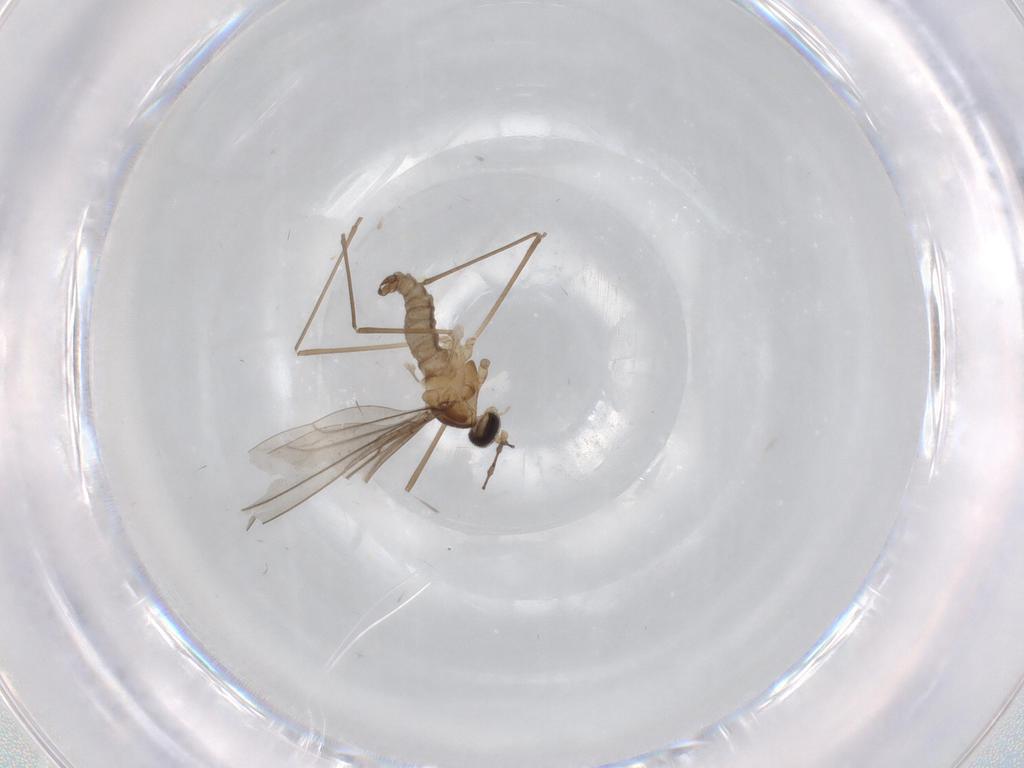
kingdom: Animalia
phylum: Arthropoda
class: Insecta
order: Diptera
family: Cecidomyiidae
